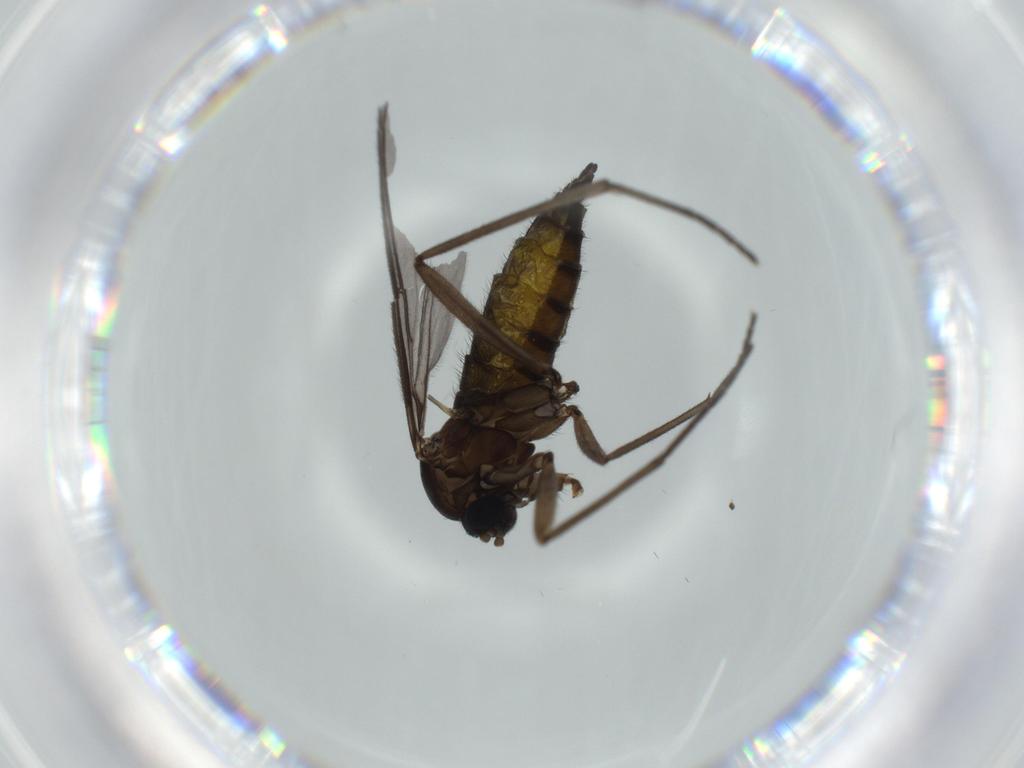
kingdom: Animalia
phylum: Arthropoda
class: Insecta
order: Diptera
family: Sciaridae
